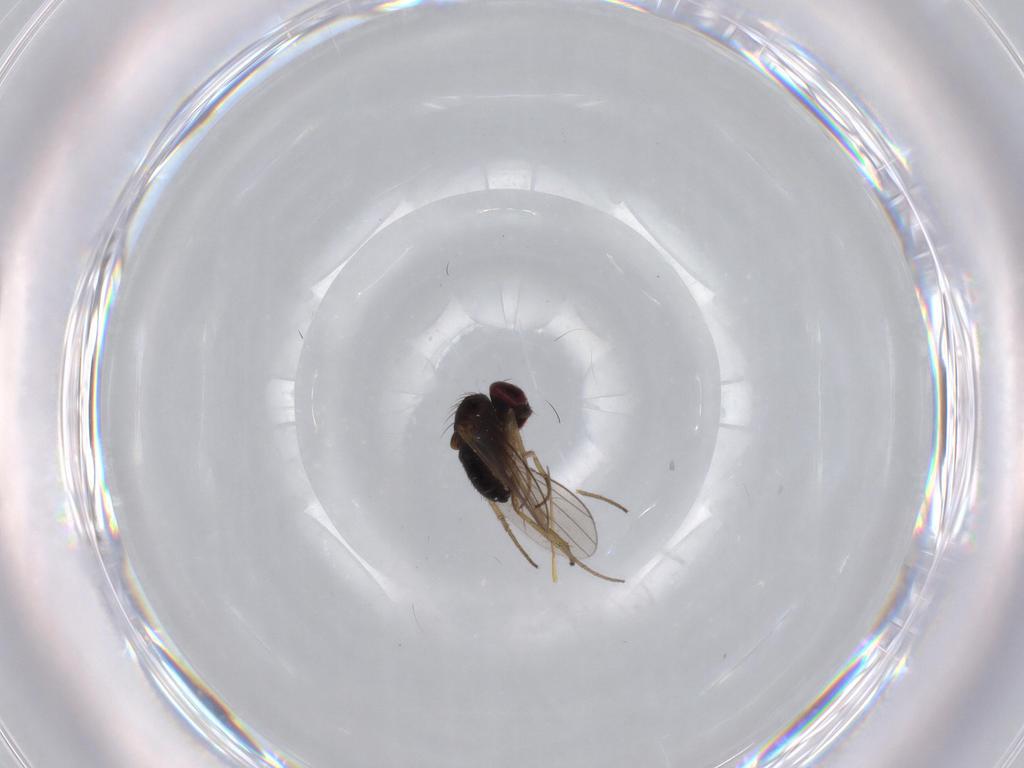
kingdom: Animalia
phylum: Arthropoda
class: Insecta
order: Diptera
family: Dolichopodidae
